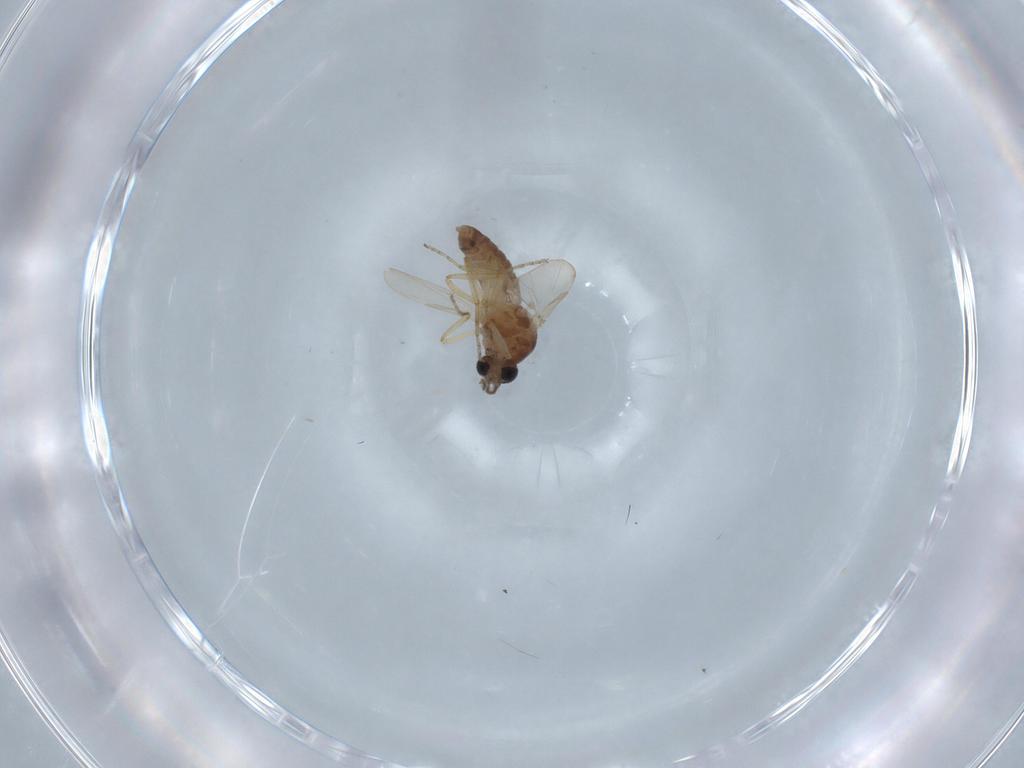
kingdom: Animalia
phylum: Arthropoda
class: Insecta
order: Diptera
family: Ceratopogonidae
